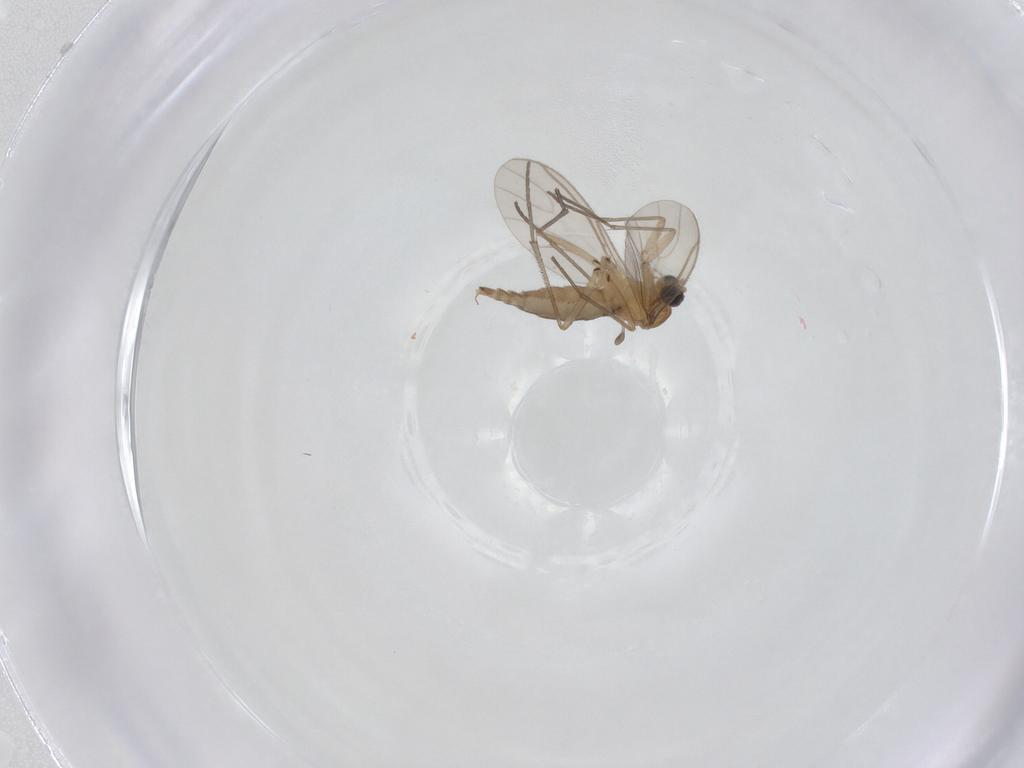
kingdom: Animalia
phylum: Arthropoda
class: Insecta
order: Diptera
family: Sciaridae
